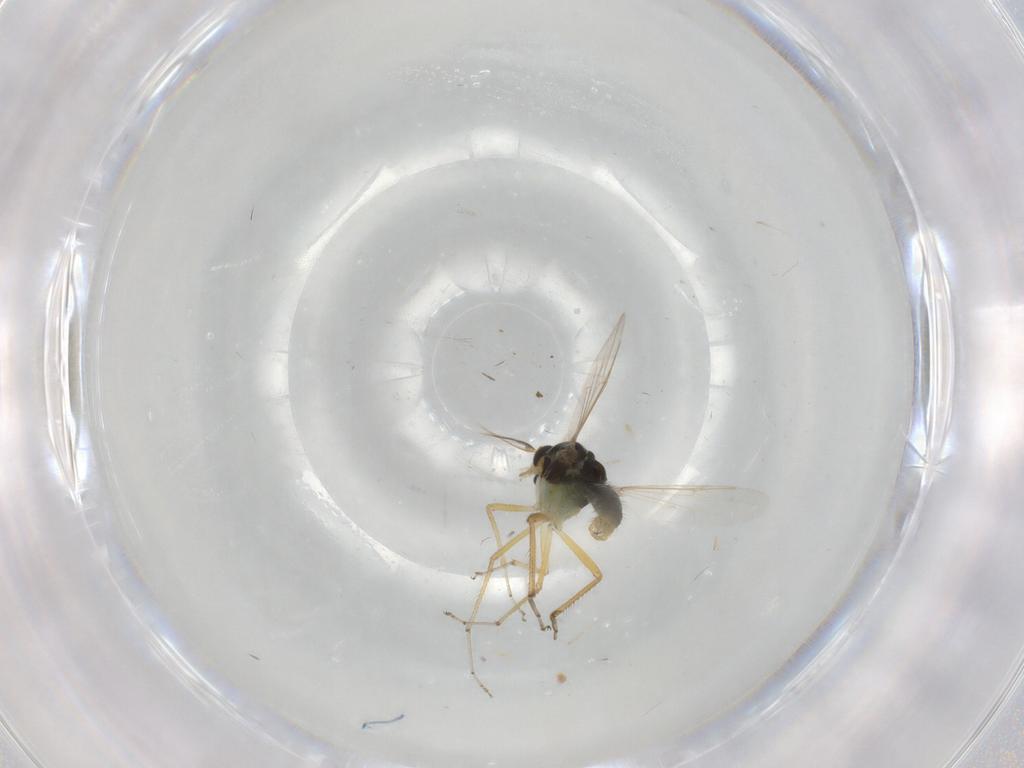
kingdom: Animalia
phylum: Arthropoda
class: Insecta
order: Diptera
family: Ceratopogonidae
